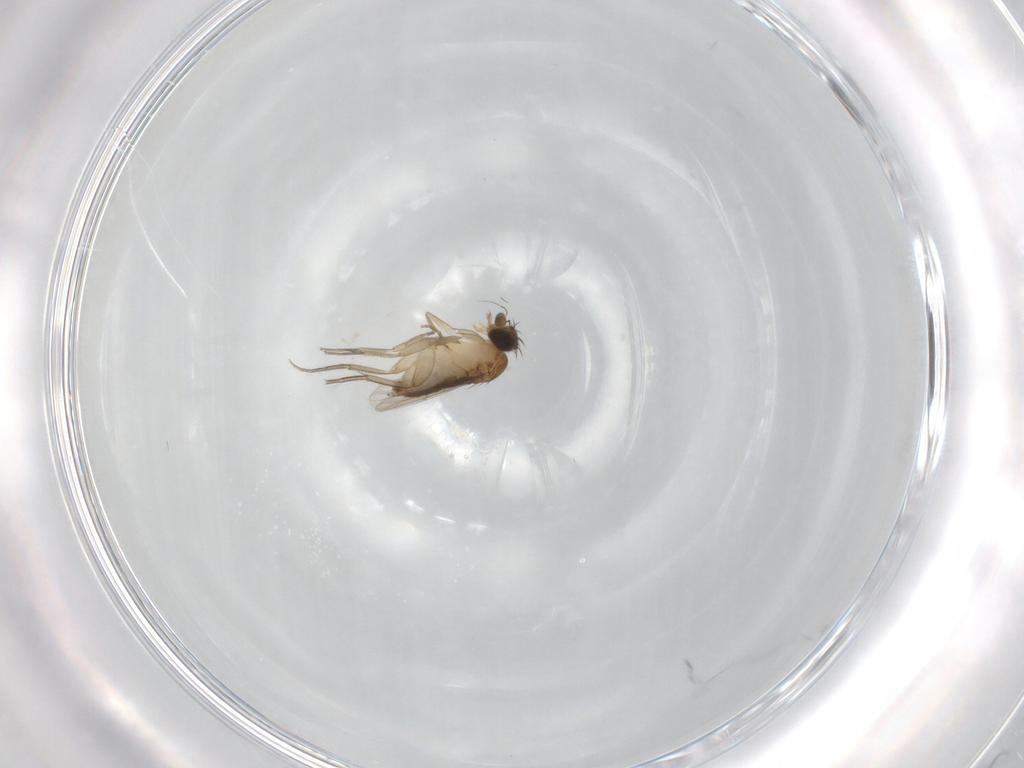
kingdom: Animalia
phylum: Arthropoda
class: Insecta
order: Diptera
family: Phoridae
